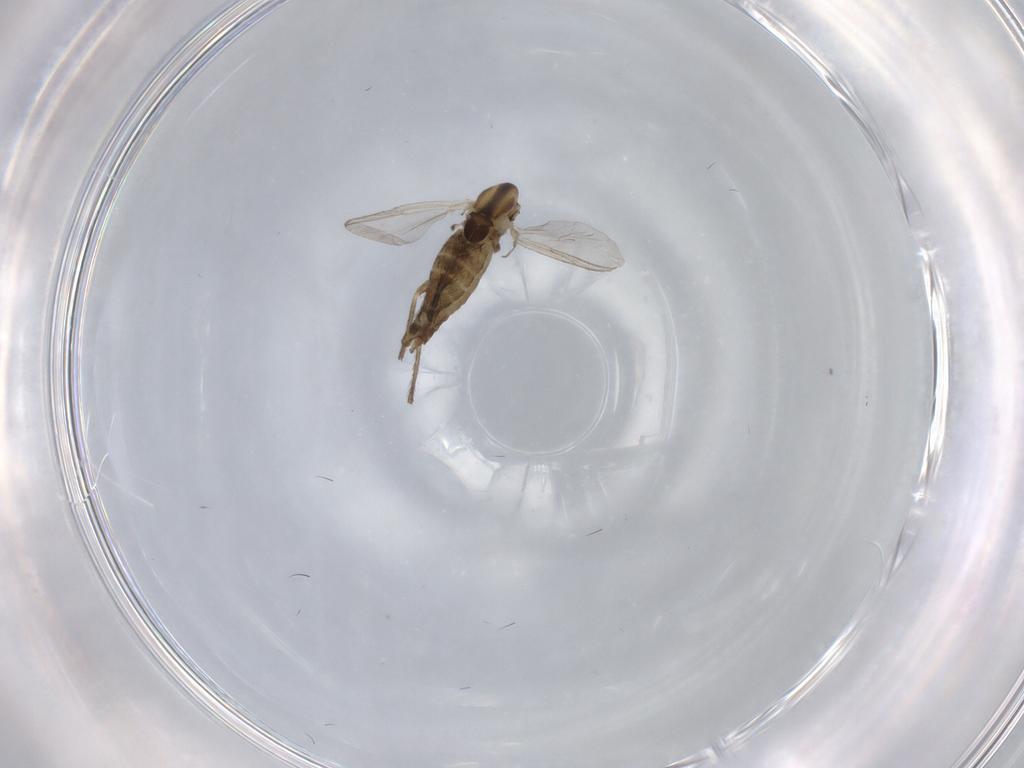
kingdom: Animalia
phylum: Arthropoda
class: Insecta
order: Diptera
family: Chironomidae
